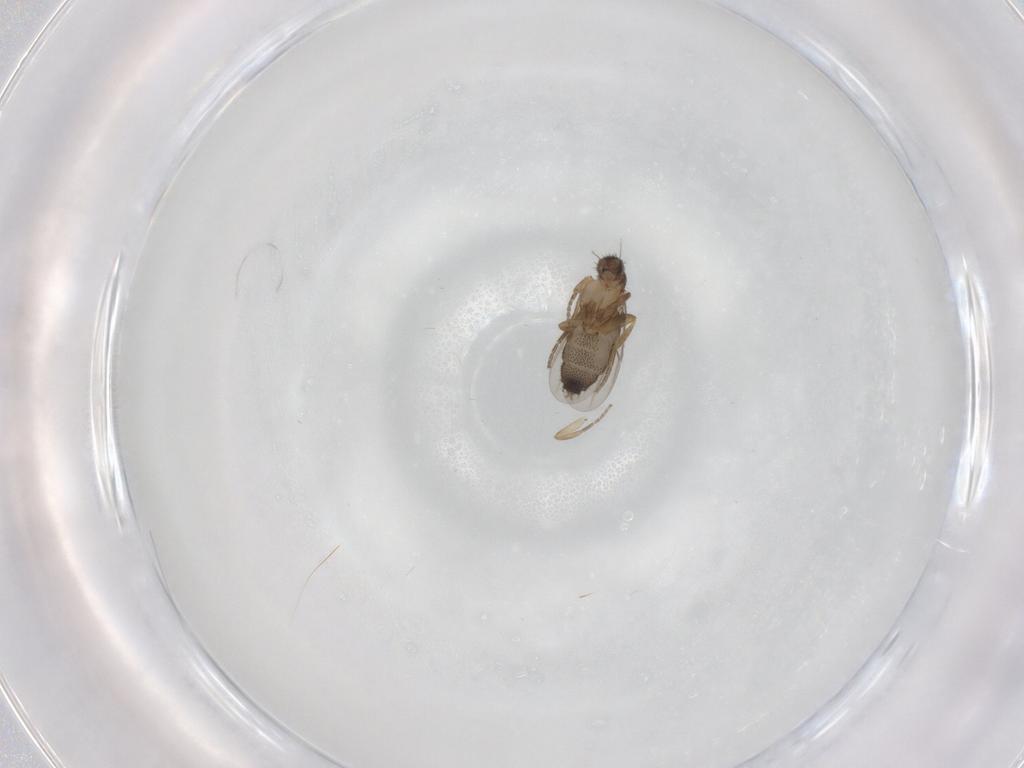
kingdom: Animalia
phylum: Arthropoda
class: Insecta
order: Diptera
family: Phoridae
